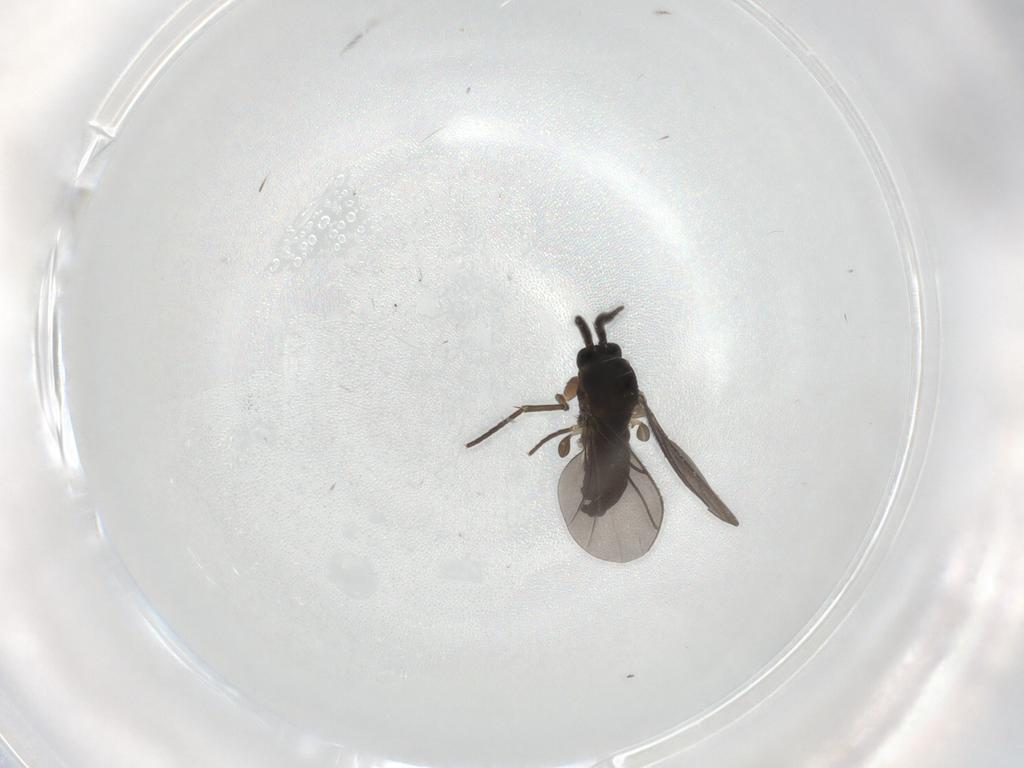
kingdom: Animalia
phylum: Arthropoda
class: Insecta
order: Diptera
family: Sciaridae
